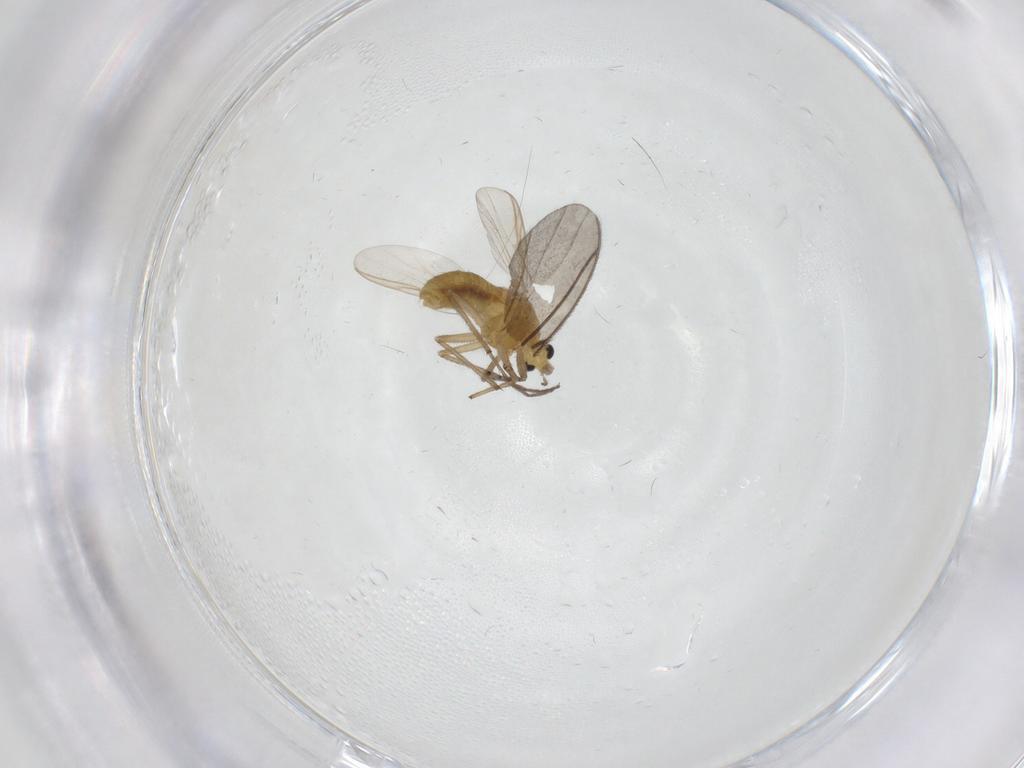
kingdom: Animalia
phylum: Arthropoda
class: Insecta
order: Diptera
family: Chironomidae
